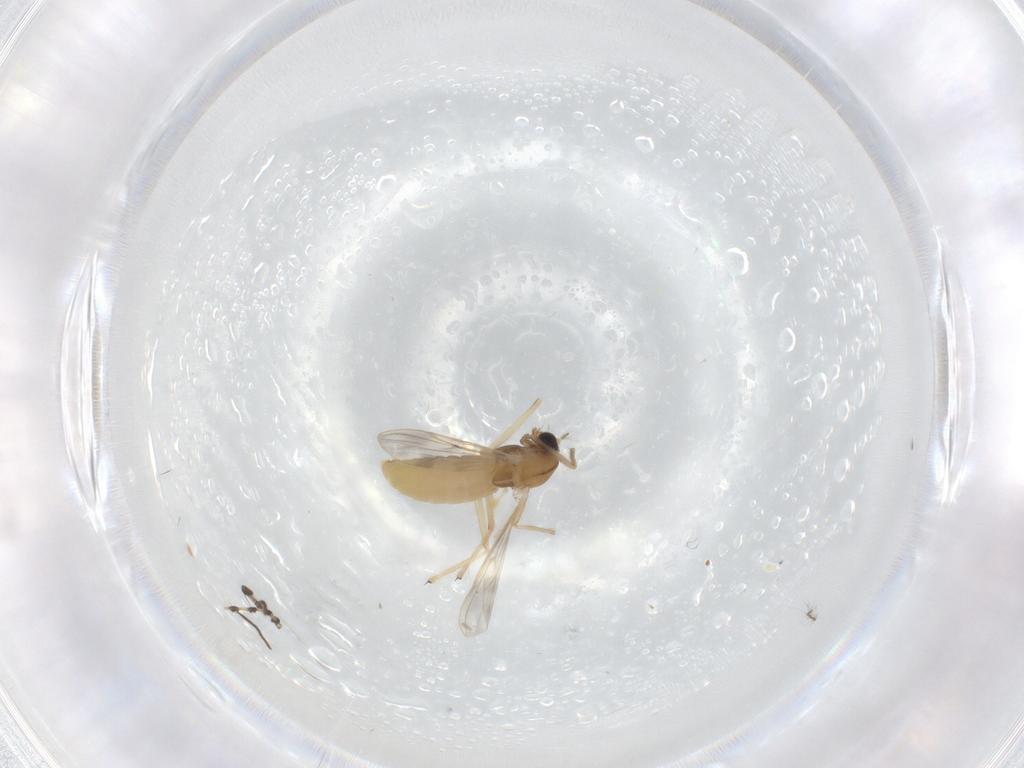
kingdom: Animalia
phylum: Arthropoda
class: Insecta
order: Diptera
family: Chironomidae
